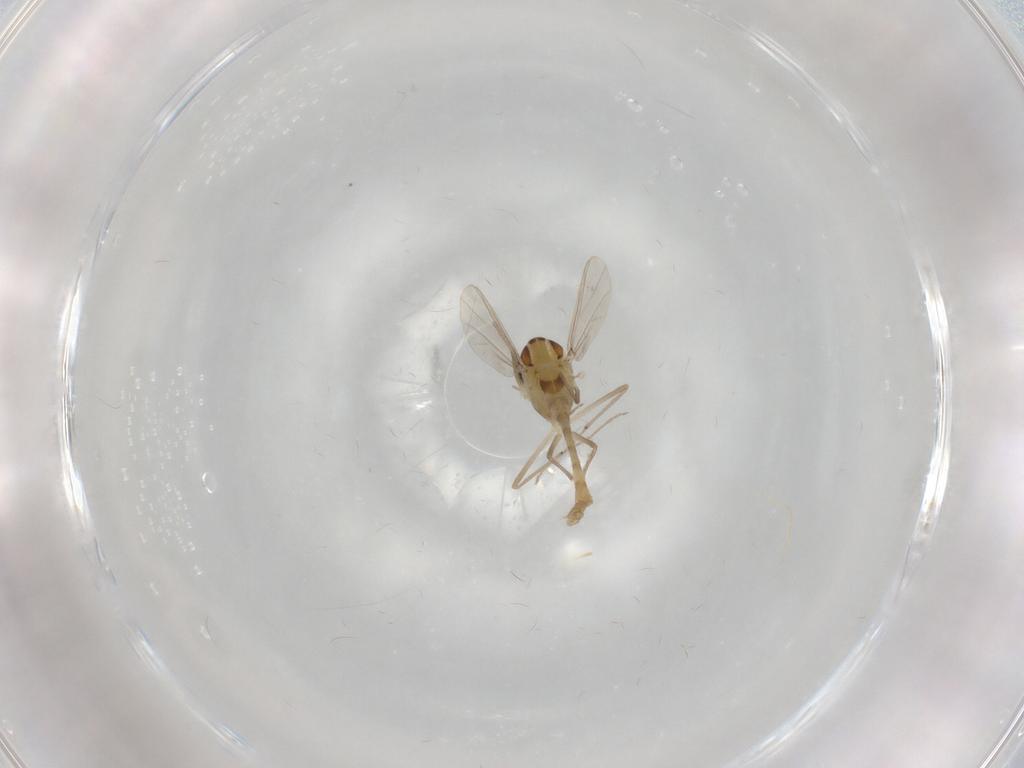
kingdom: Animalia
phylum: Arthropoda
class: Insecta
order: Diptera
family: Chironomidae
